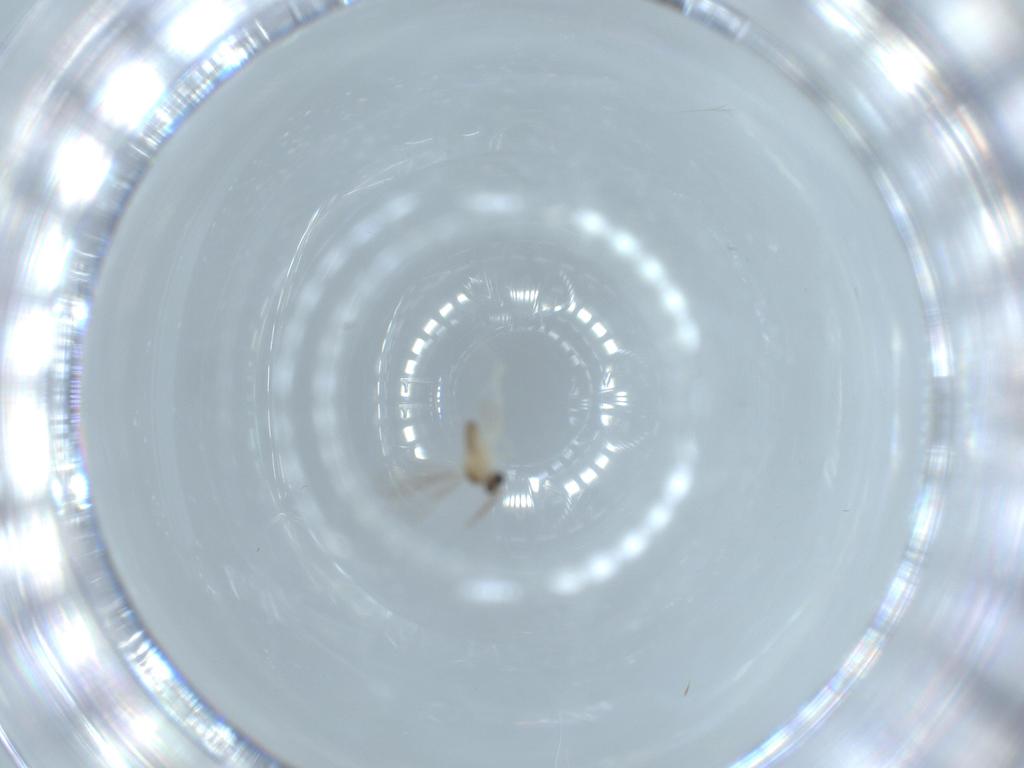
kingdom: Animalia
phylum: Arthropoda
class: Insecta
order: Diptera
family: Cecidomyiidae
